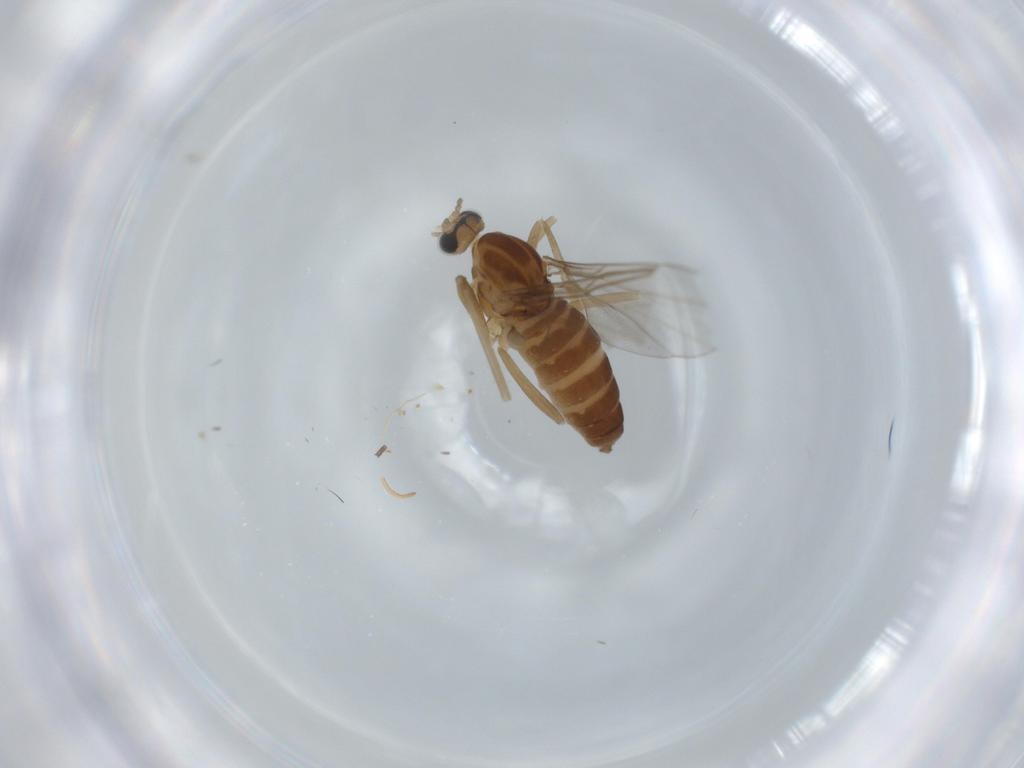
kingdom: Animalia
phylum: Arthropoda
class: Insecta
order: Diptera
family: Cecidomyiidae
